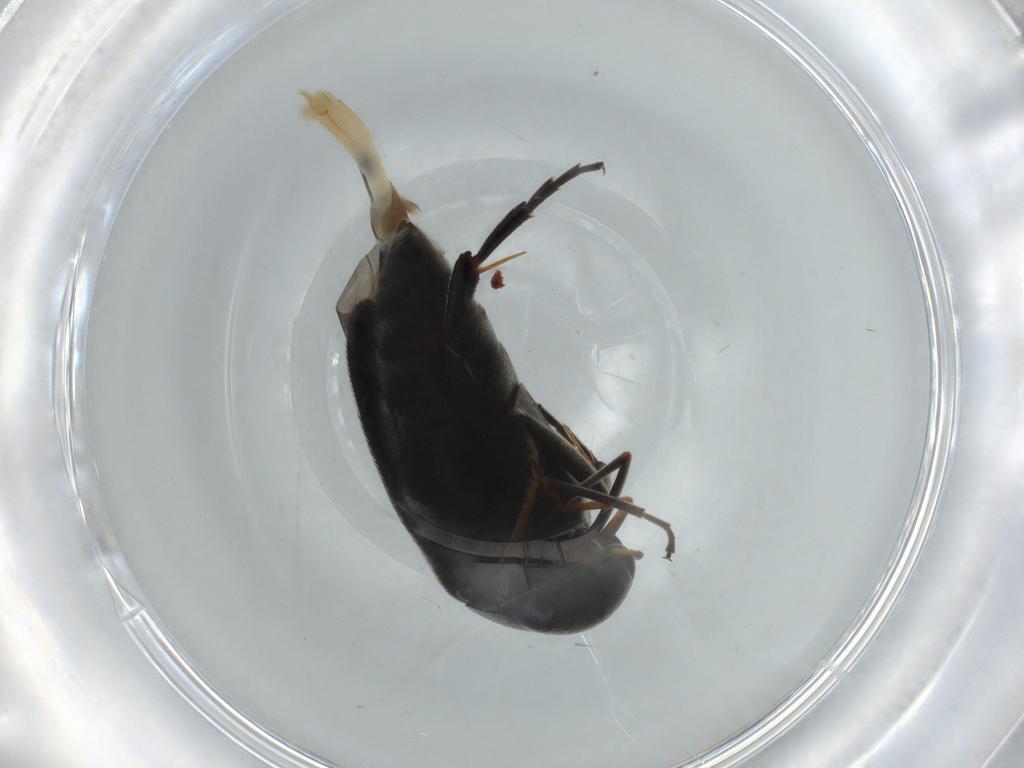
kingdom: Animalia
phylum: Arthropoda
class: Insecta
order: Coleoptera
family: Mordellidae
